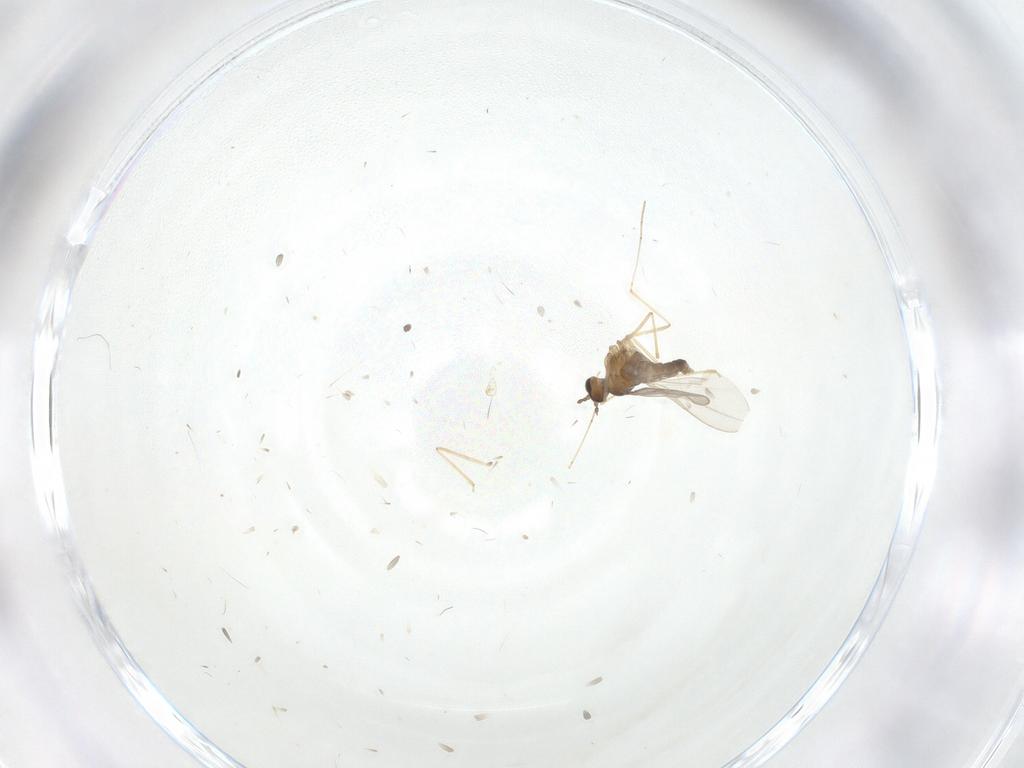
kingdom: Animalia
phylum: Arthropoda
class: Insecta
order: Diptera
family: Cecidomyiidae
